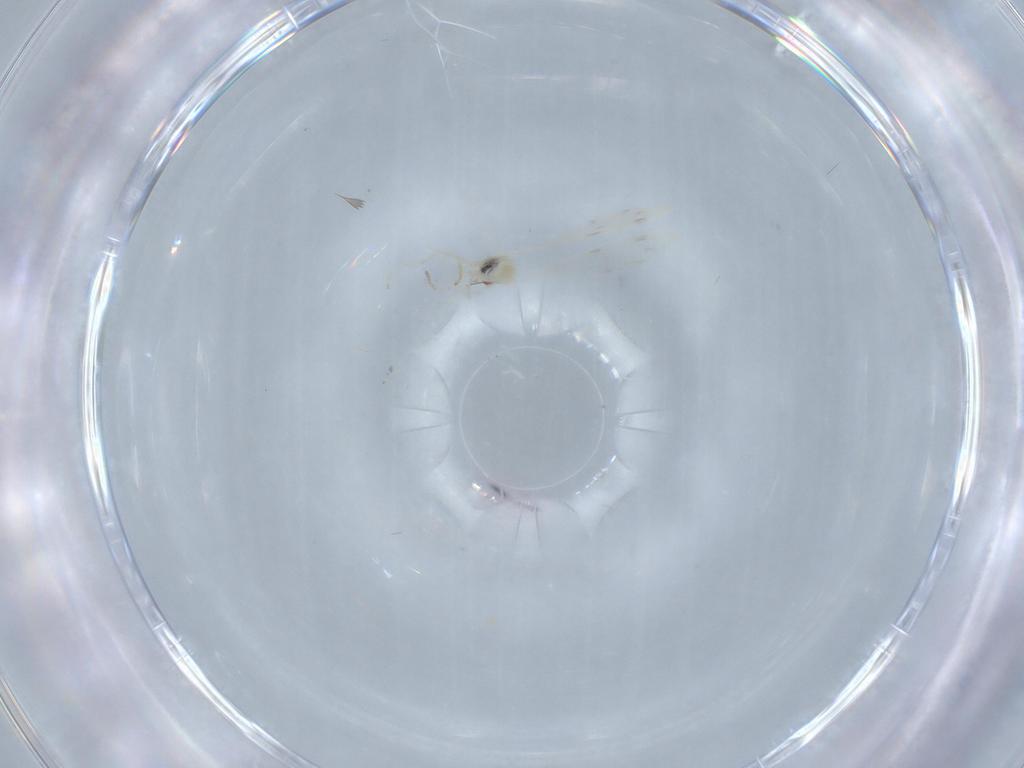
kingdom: Animalia
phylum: Arthropoda
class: Insecta
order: Diptera
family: Cecidomyiidae
